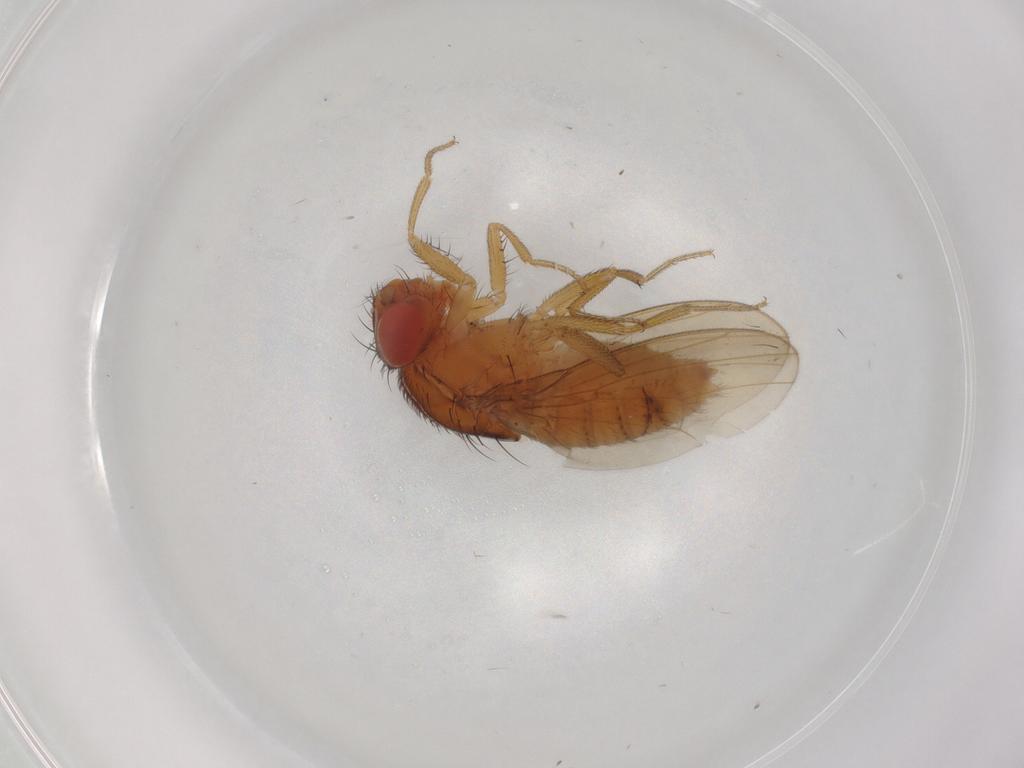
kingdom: Animalia
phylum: Arthropoda
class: Insecta
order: Diptera
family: Drosophilidae
